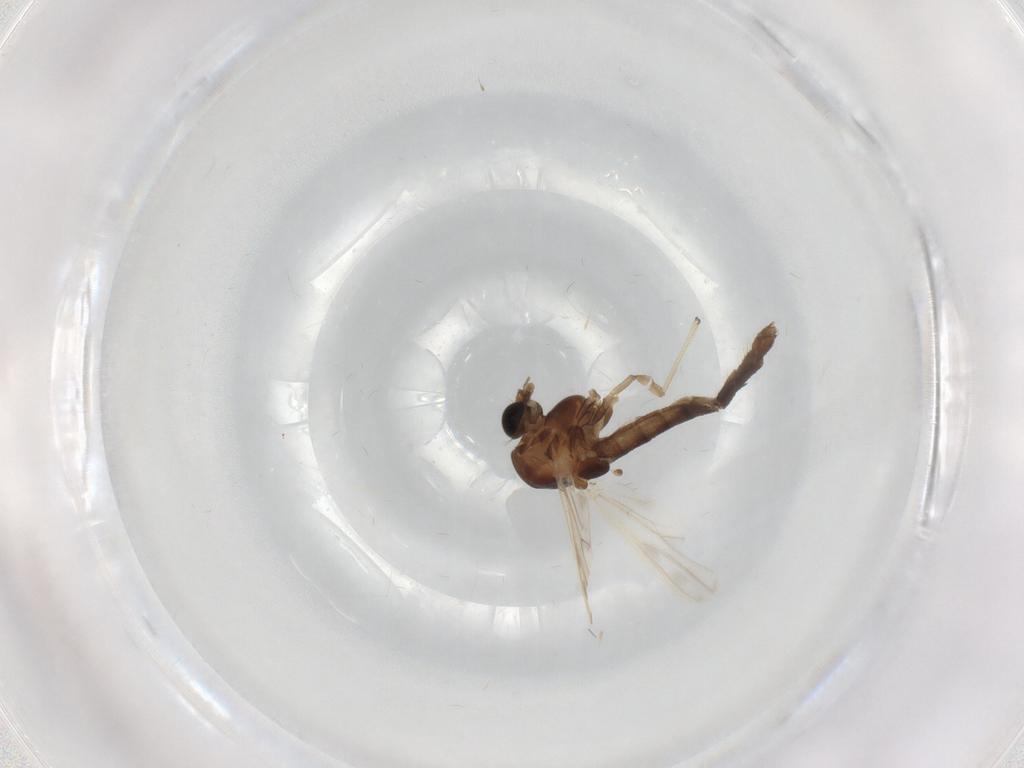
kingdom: Animalia
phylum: Arthropoda
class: Insecta
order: Diptera
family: Chironomidae
